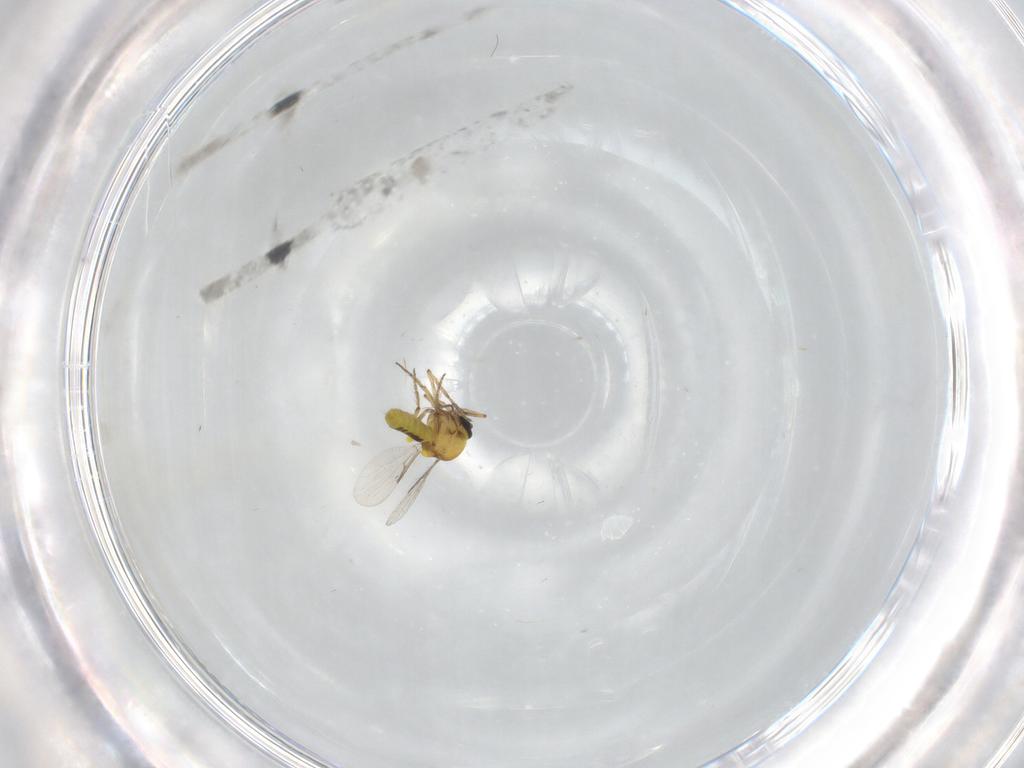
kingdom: Animalia
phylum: Arthropoda
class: Insecta
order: Diptera
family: Ceratopogonidae
